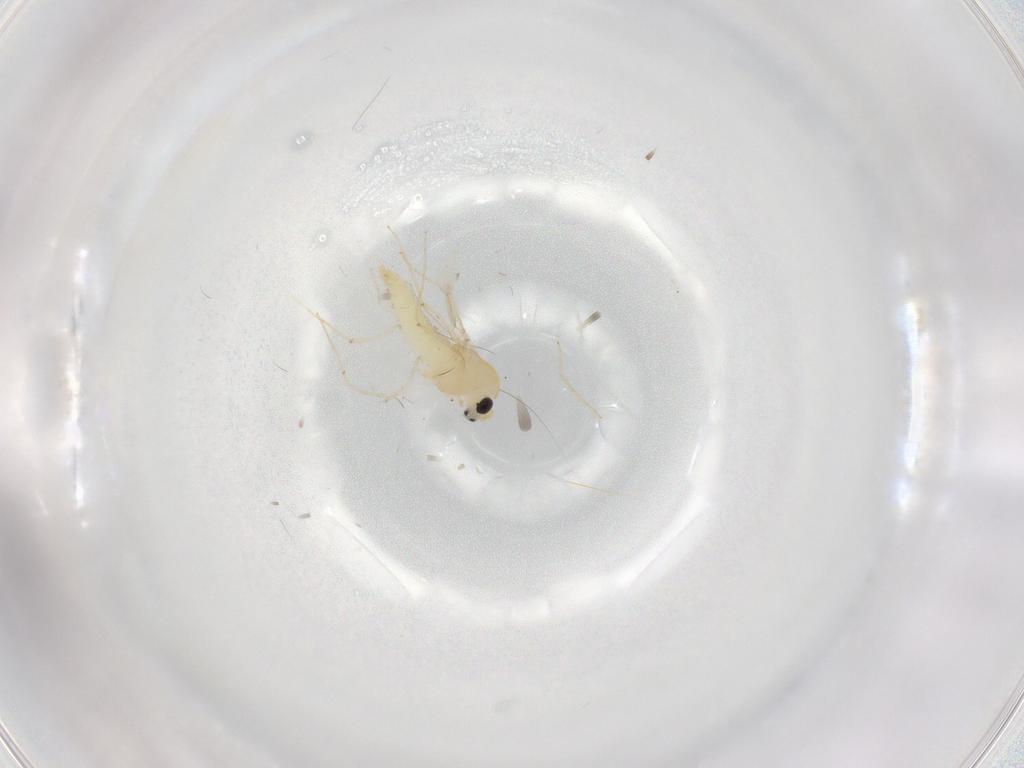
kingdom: Animalia
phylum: Arthropoda
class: Insecta
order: Diptera
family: Chironomidae
